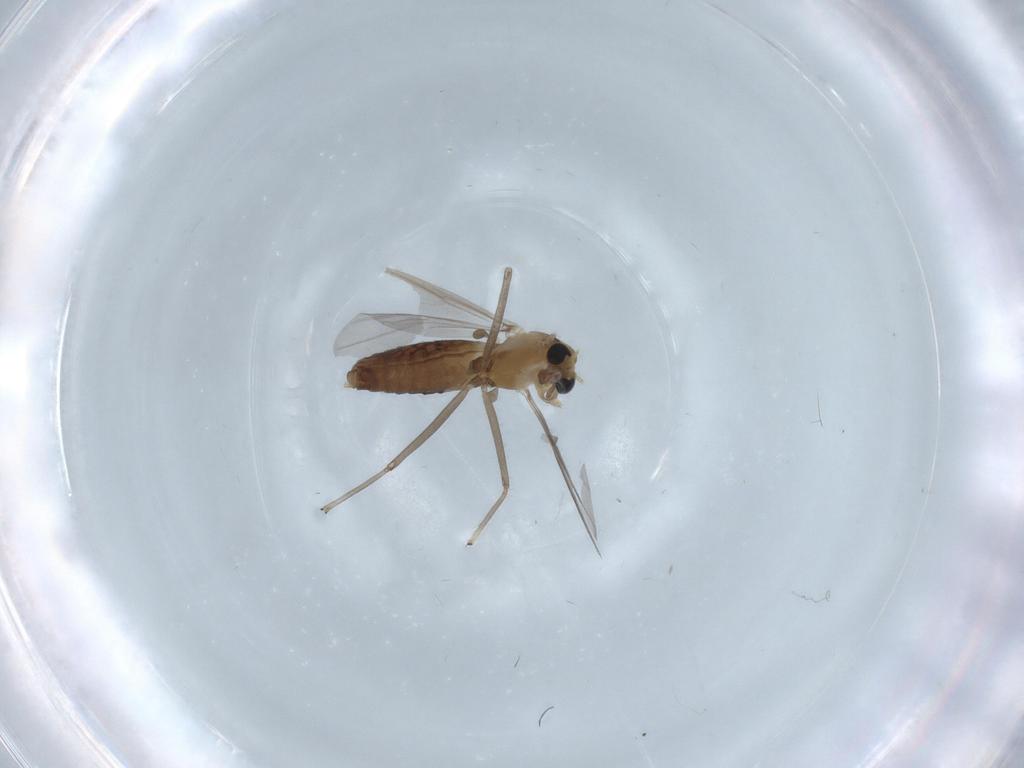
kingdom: Animalia
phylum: Arthropoda
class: Insecta
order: Diptera
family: Chironomidae
